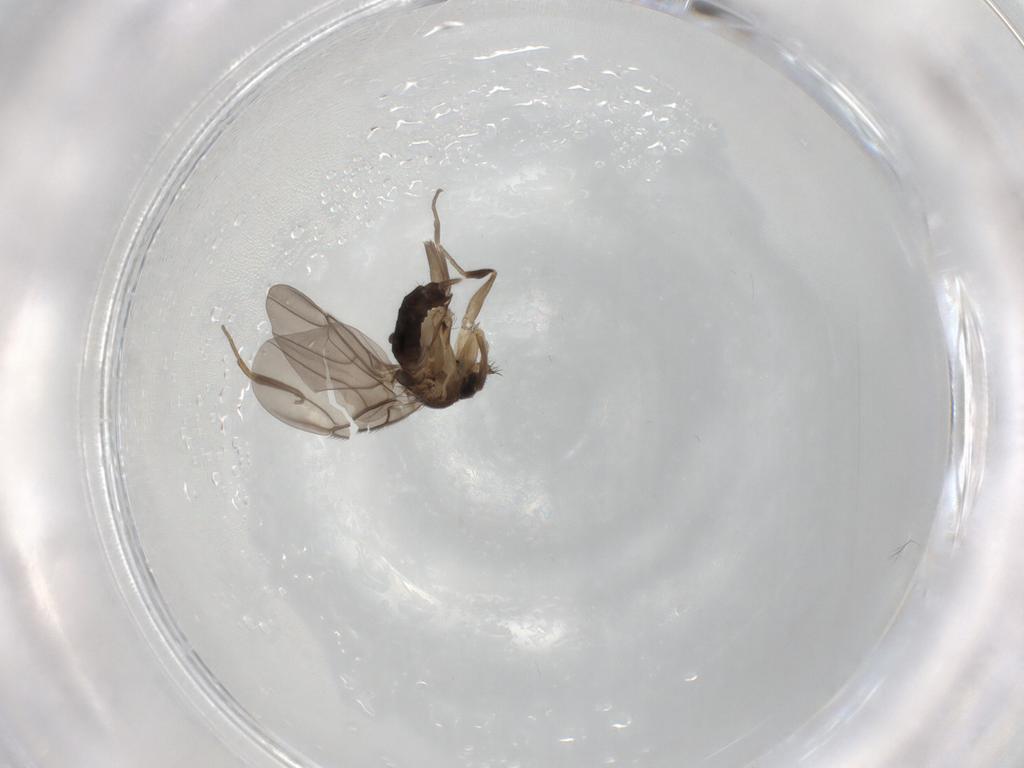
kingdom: Animalia
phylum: Arthropoda
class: Insecta
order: Diptera
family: Phoridae
